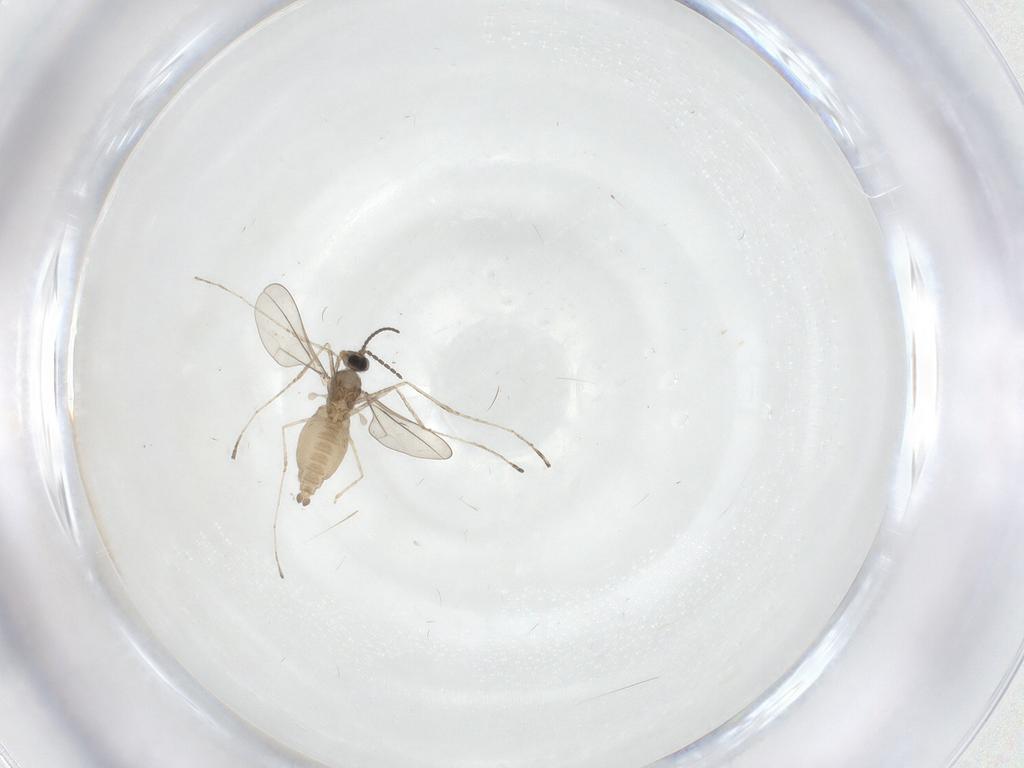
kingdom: Animalia
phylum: Arthropoda
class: Insecta
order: Diptera
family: Cecidomyiidae
